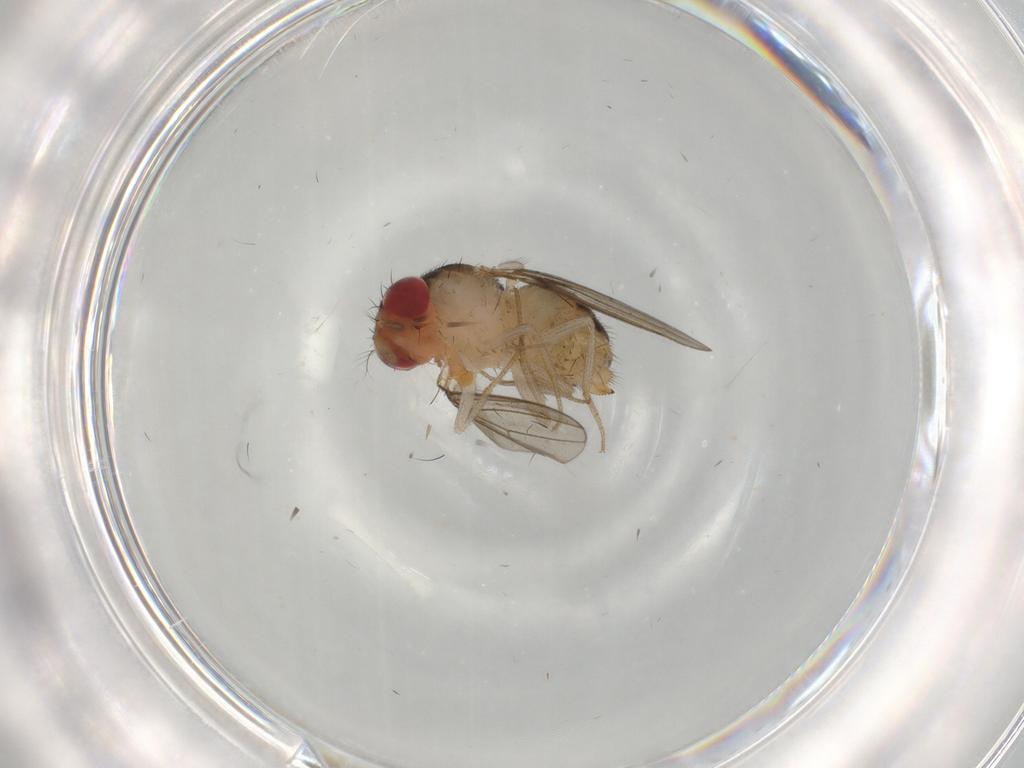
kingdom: Animalia
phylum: Arthropoda
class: Insecta
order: Diptera
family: Drosophilidae
